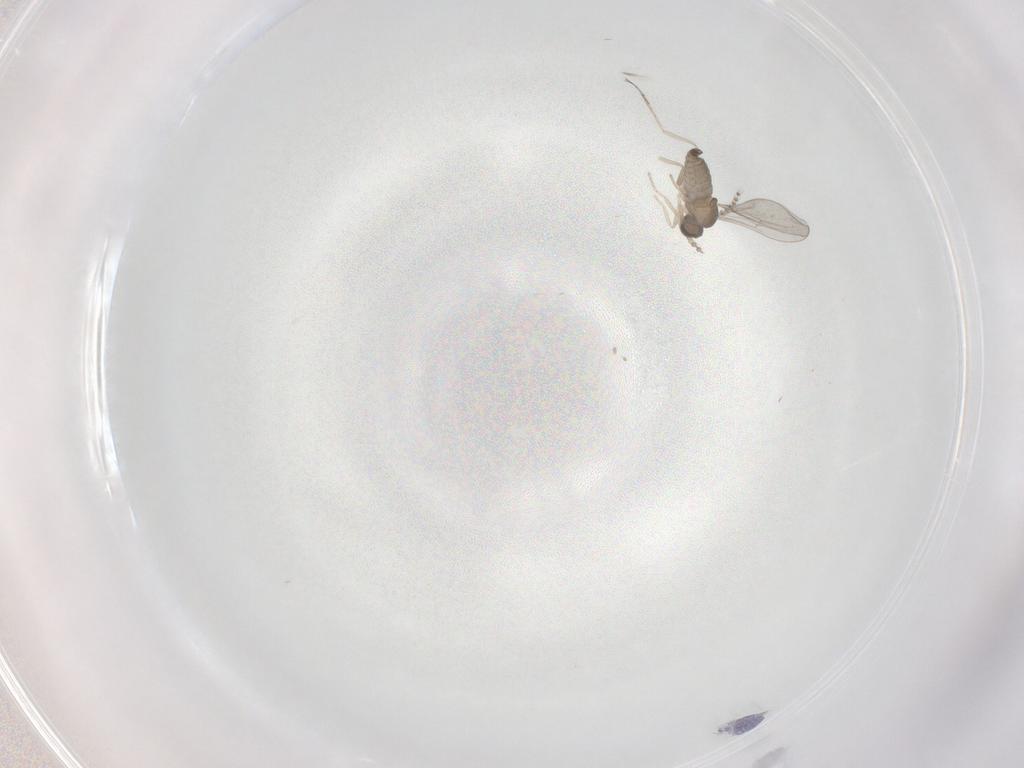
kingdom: Animalia
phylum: Arthropoda
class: Insecta
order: Diptera
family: Cecidomyiidae
